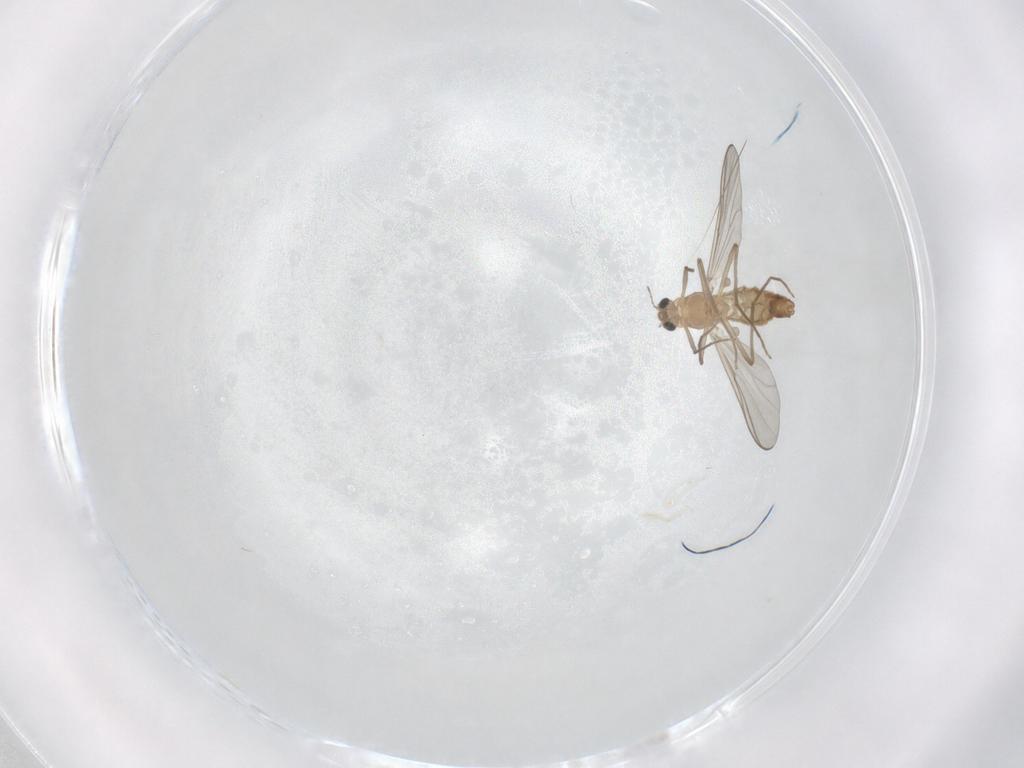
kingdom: Animalia
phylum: Arthropoda
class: Insecta
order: Diptera
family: Chironomidae
